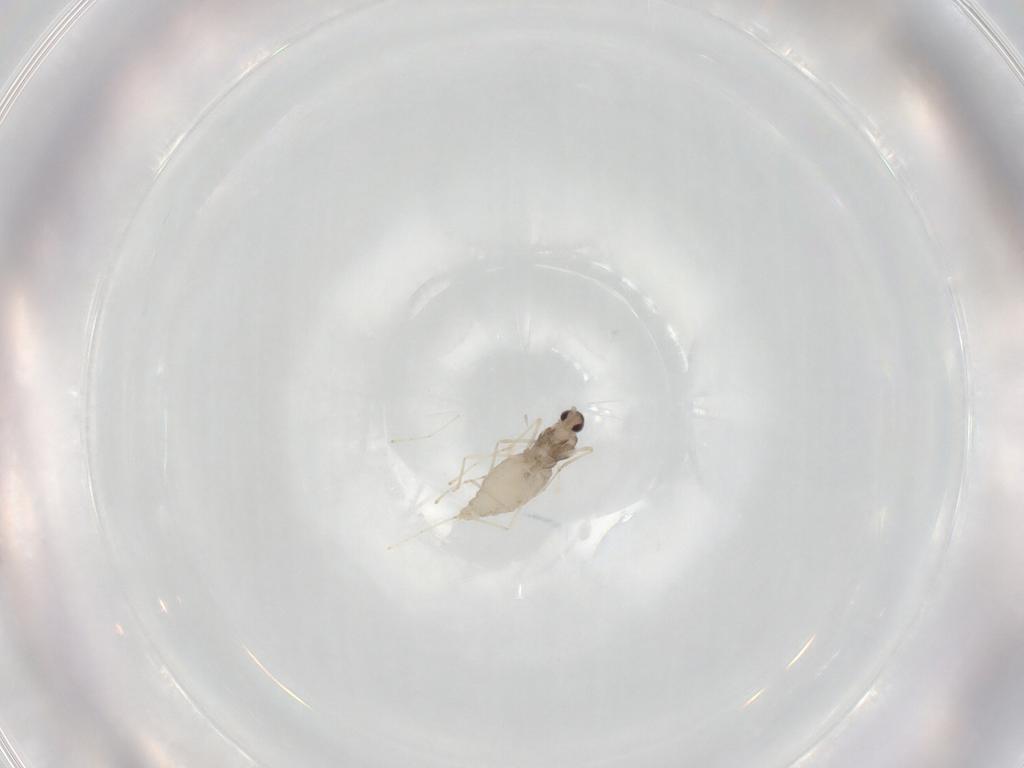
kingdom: Animalia
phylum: Arthropoda
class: Insecta
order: Diptera
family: Cecidomyiidae
